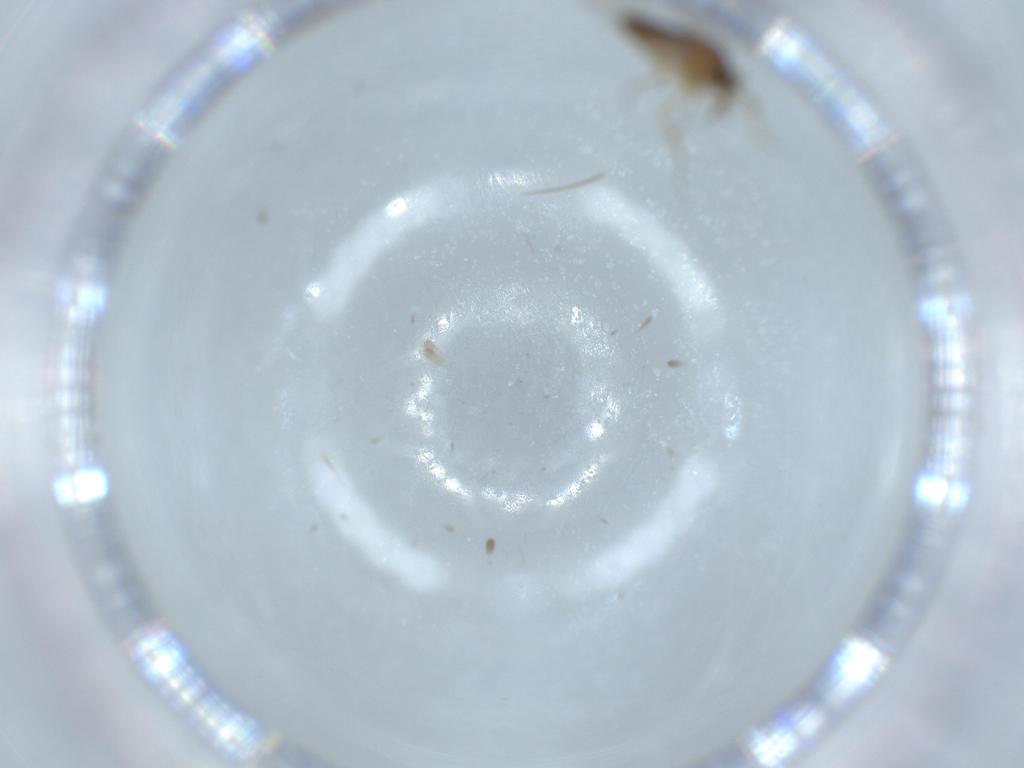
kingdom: Animalia
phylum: Arthropoda
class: Insecta
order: Diptera
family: Ceratopogonidae
